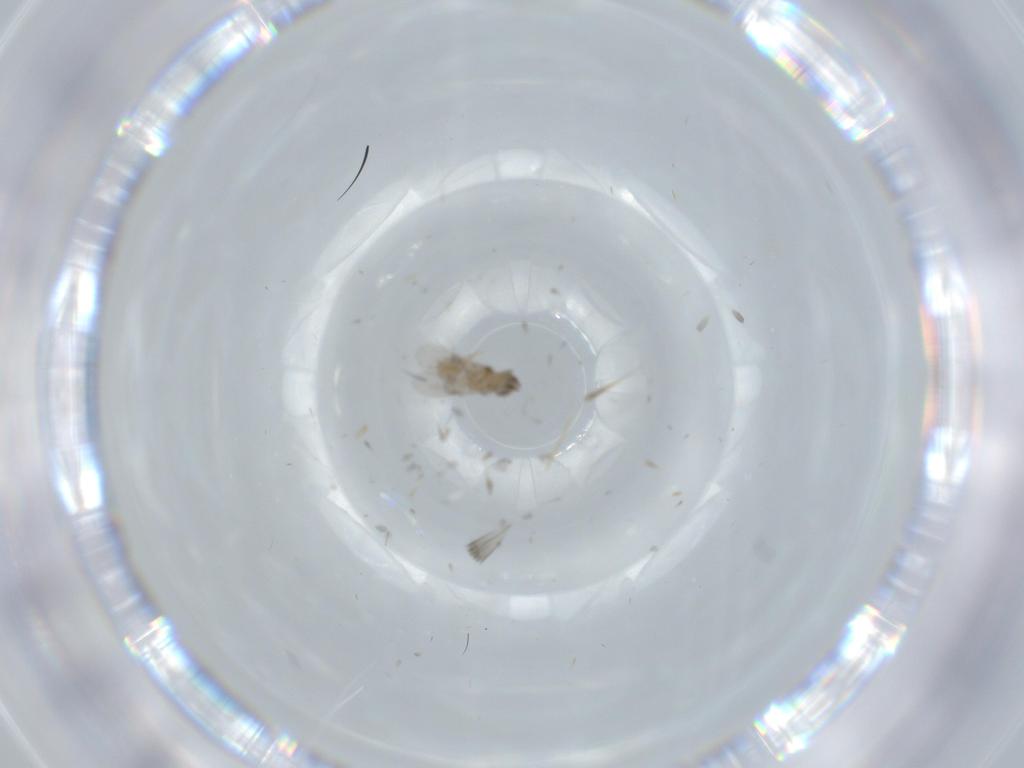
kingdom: Animalia
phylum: Arthropoda
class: Insecta
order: Hymenoptera
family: Encyrtidae
